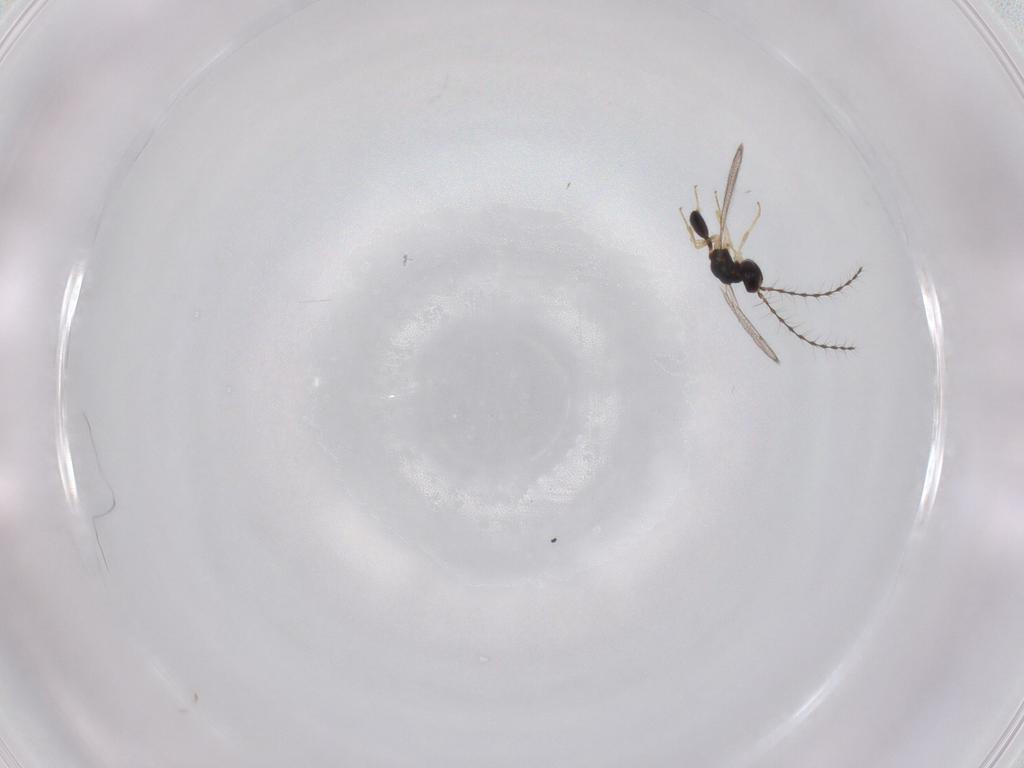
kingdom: Animalia
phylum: Arthropoda
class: Insecta
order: Hymenoptera
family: Diparidae
